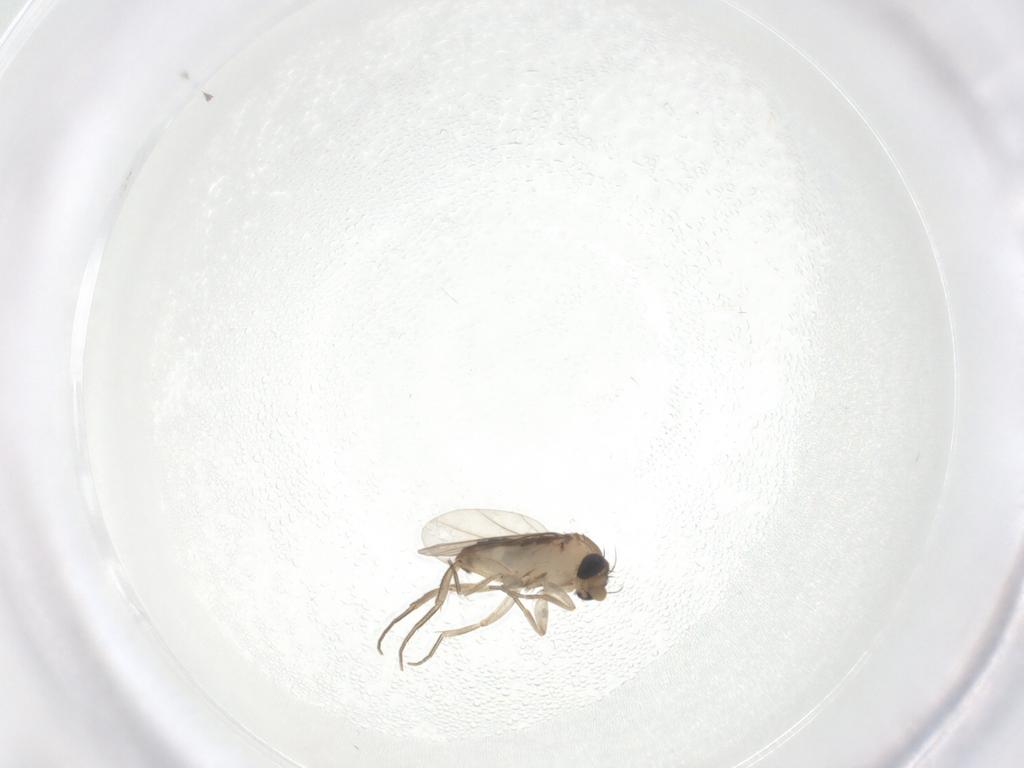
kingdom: Animalia
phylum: Arthropoda
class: Insecta
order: Diptera
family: Phoridae
